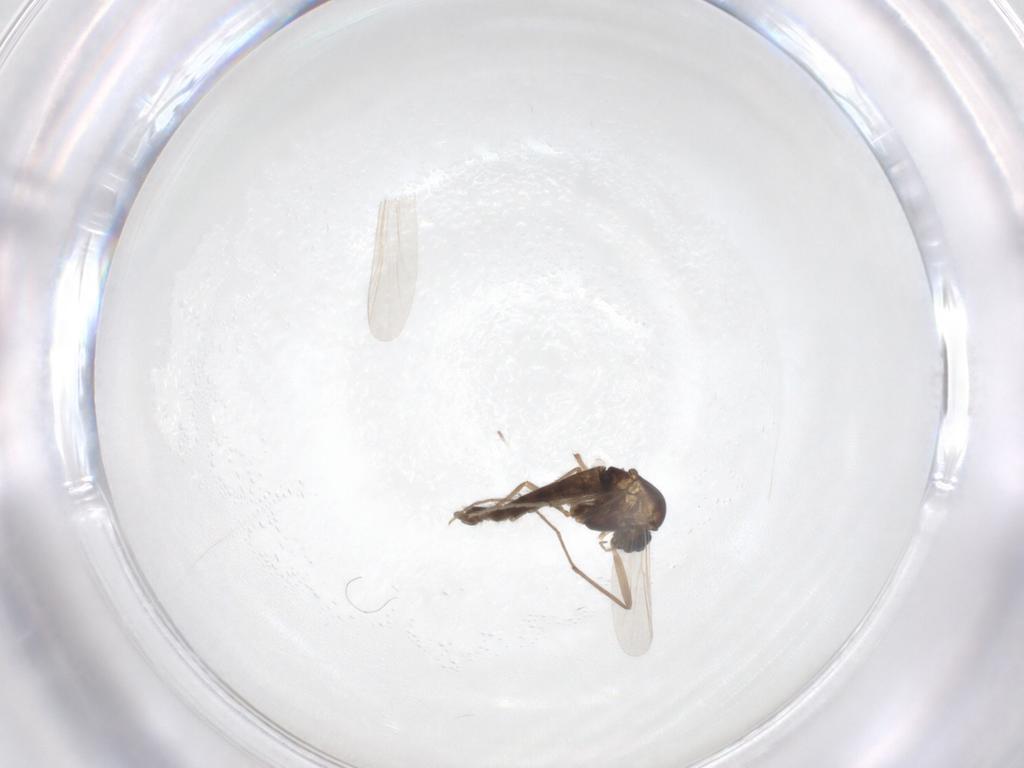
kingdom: Animalia
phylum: Arthropoda
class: Insecta
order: Diptera
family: Chironomidae
